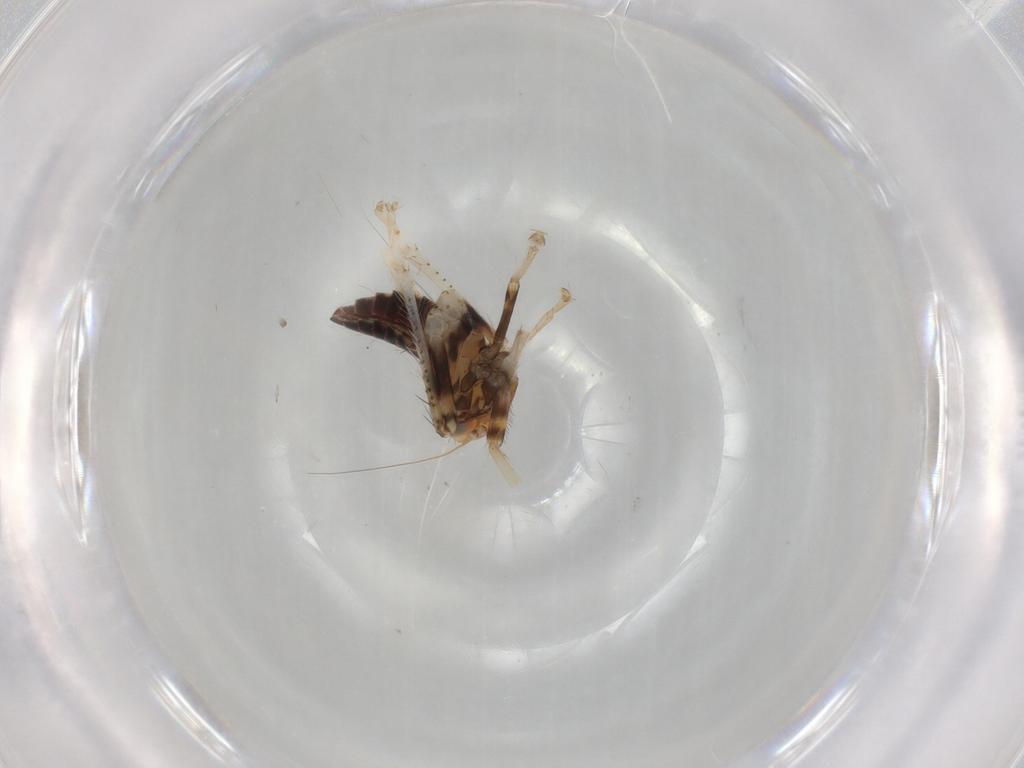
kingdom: Animalia
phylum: Arthropoda
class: Insecta
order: Hemiptera
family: Cicadellidae
